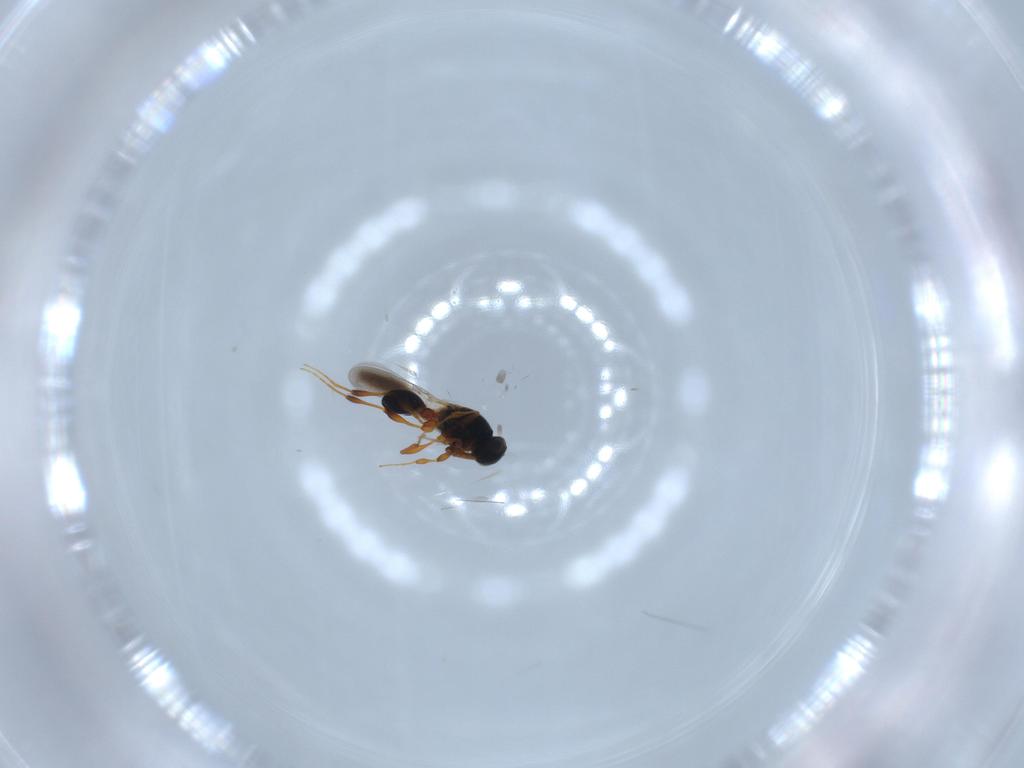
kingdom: Animalia
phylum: Arthropoda
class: Insecta
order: Hymenoptera
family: Platygastridae
